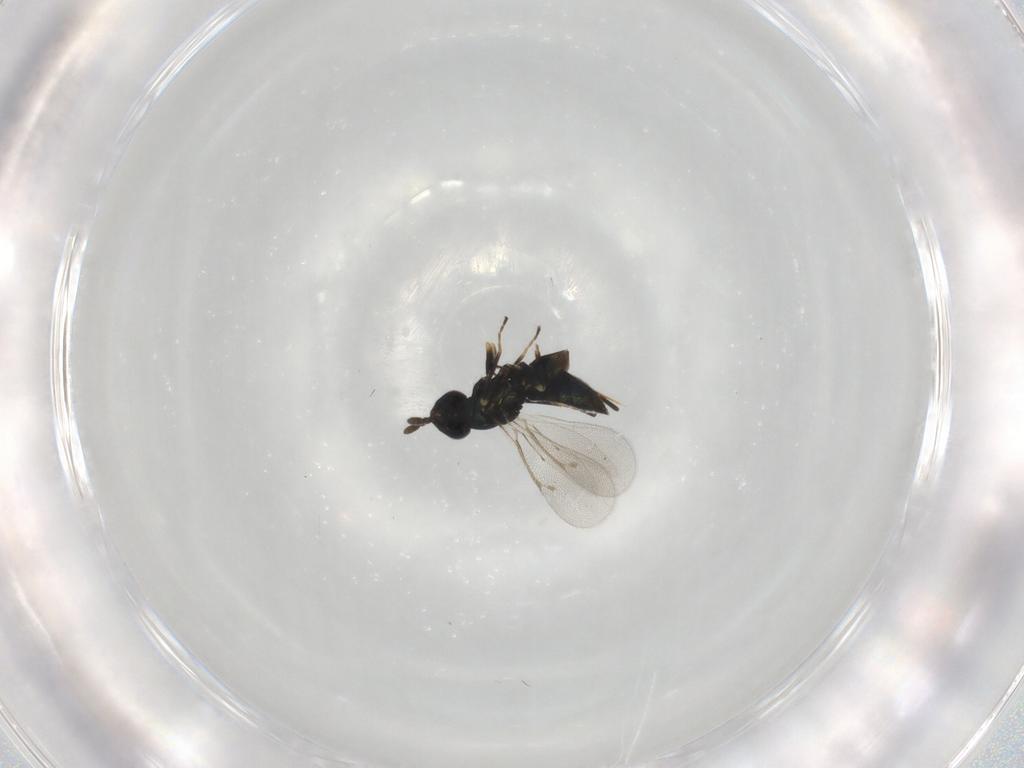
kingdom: Animalia
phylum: Arthropoda
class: Insecta
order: Hymenoptera
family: Eulophidae
